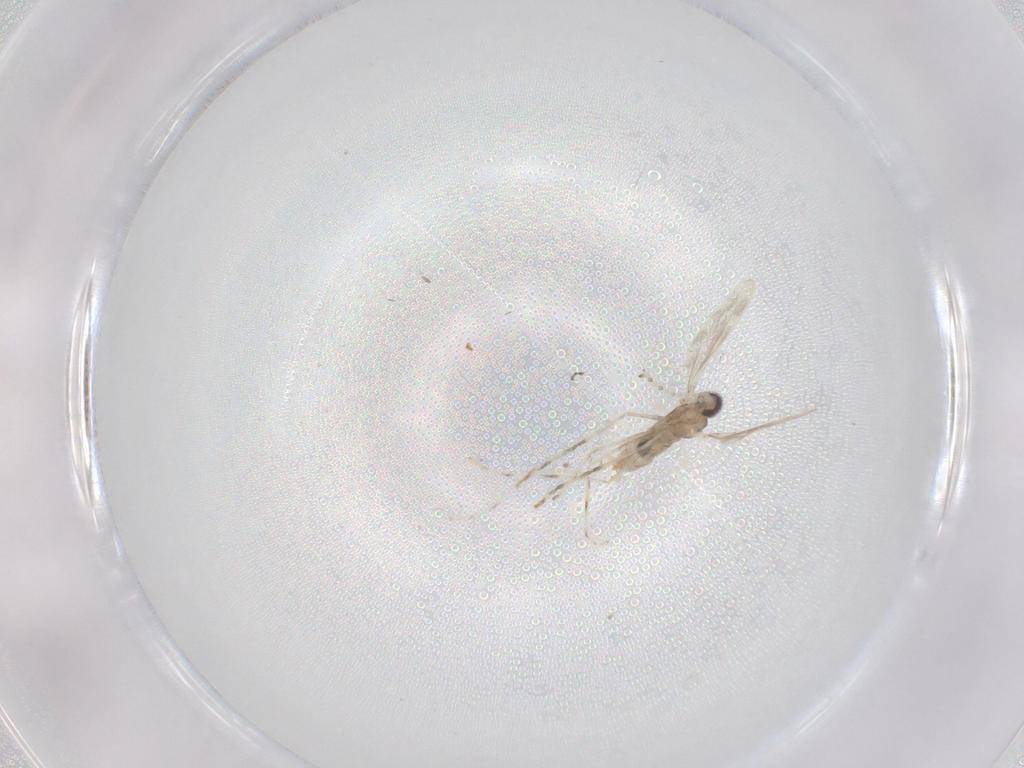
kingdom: Animalia
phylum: Arthropoda
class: Insecta
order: Diptera
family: Cecidomyiidae
